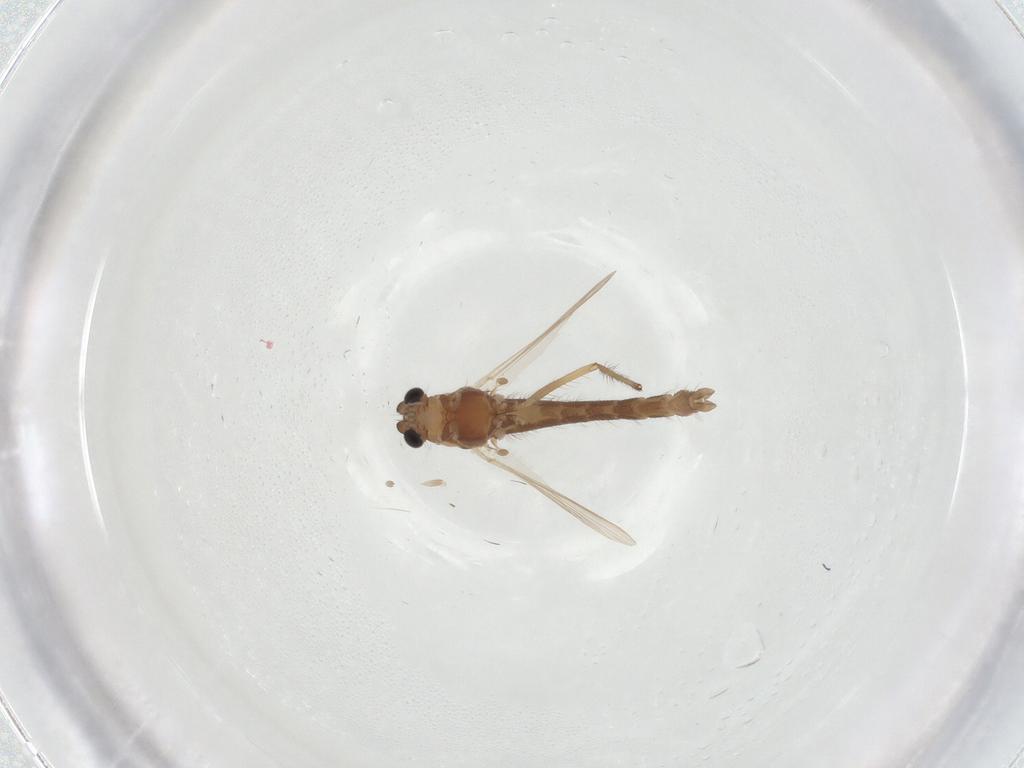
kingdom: Animalia
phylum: Arthropoda
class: Insecta
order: Diptera
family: Chironomidae
